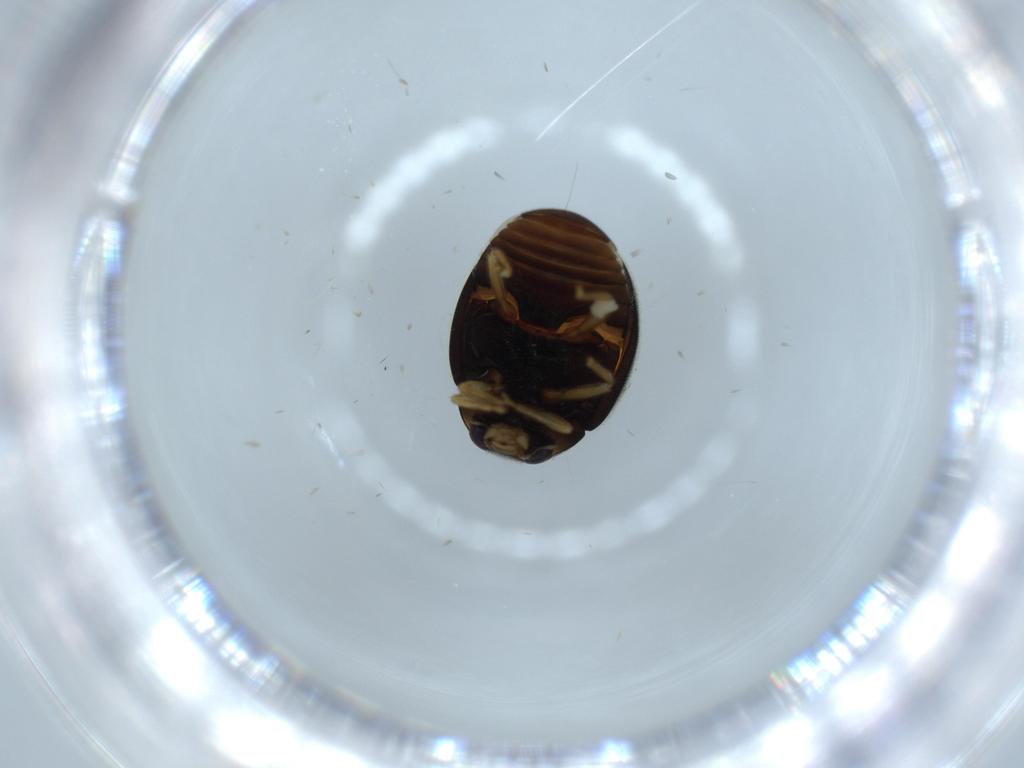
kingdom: Animalia
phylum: Arthropoda
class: Insecta
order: Coleoptera
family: Coccinellidae
